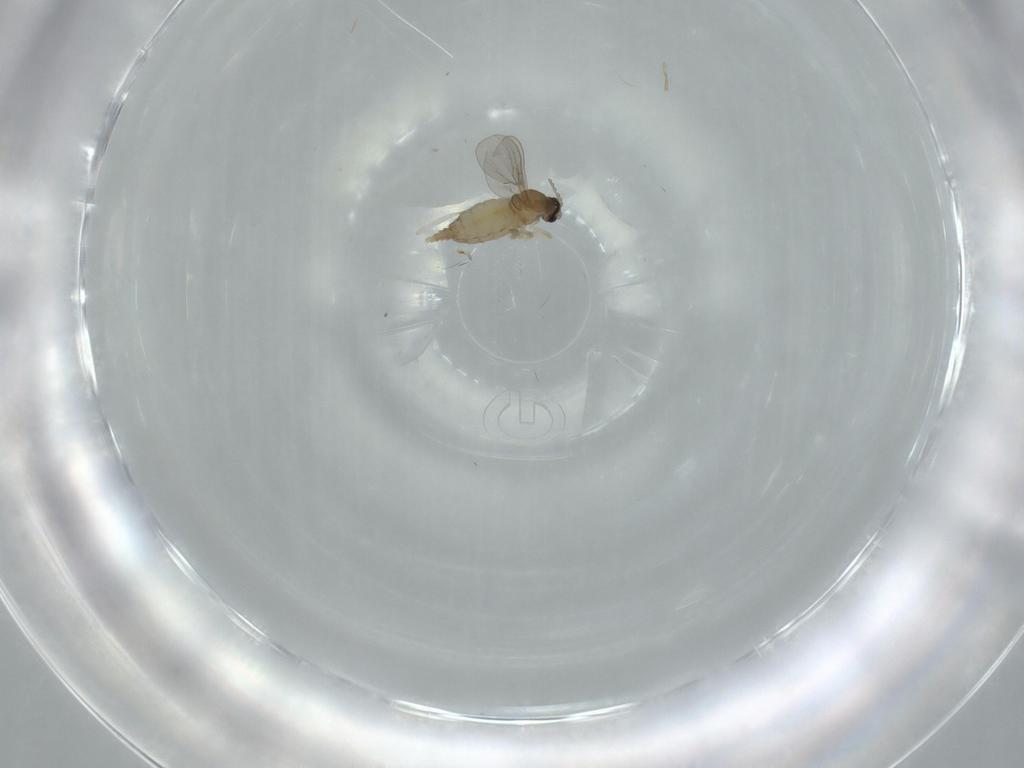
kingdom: Animalia
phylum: Arthropoda
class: Insecta
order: Diptera
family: Cecidomyiidae
